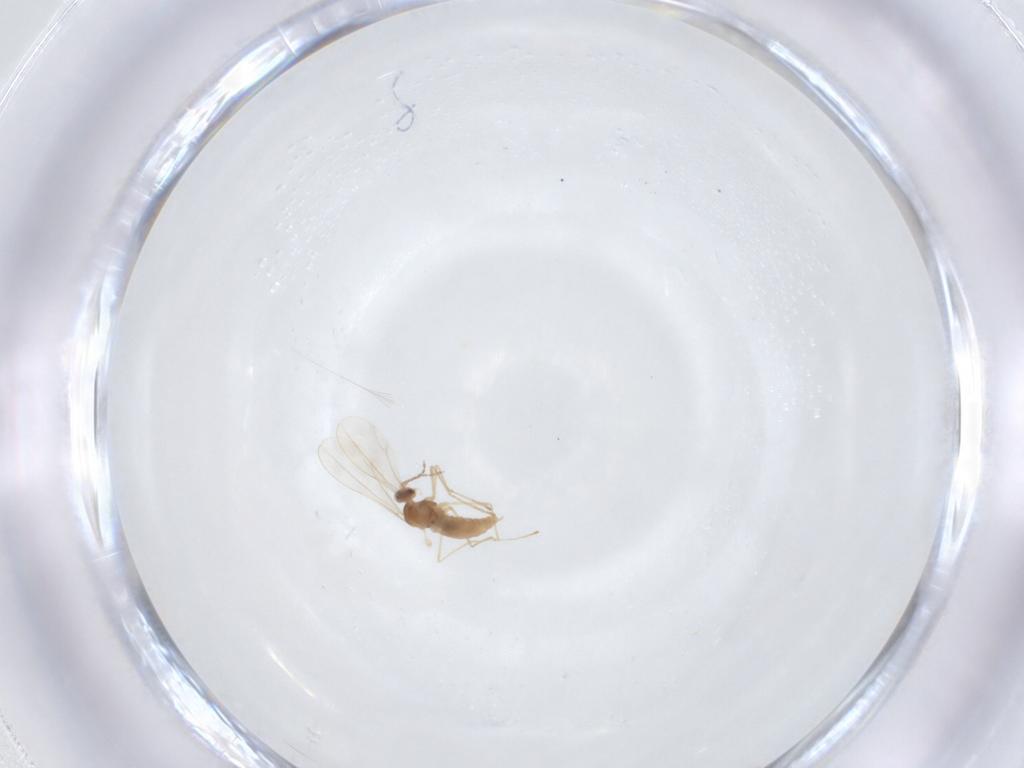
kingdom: Animalia
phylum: Arthropoda
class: Insecta
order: Diptera
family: Cecidomyiidae
